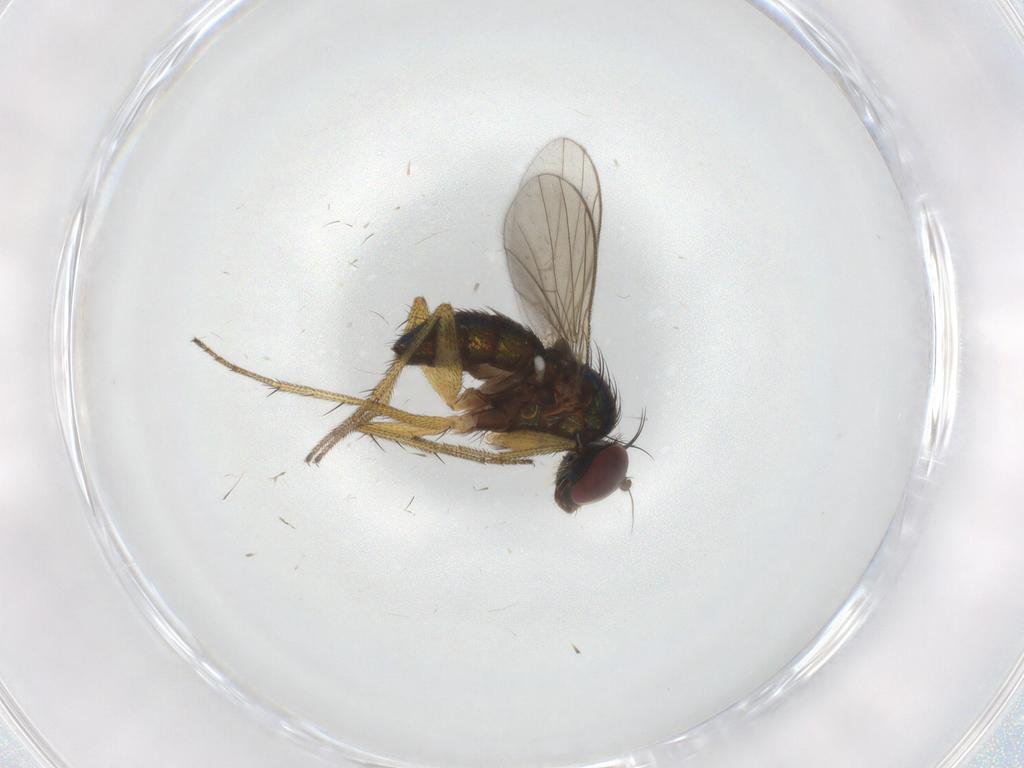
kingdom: Animalia
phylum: Arthropoda
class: Insecta
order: Diptera
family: Dolichopodidae
